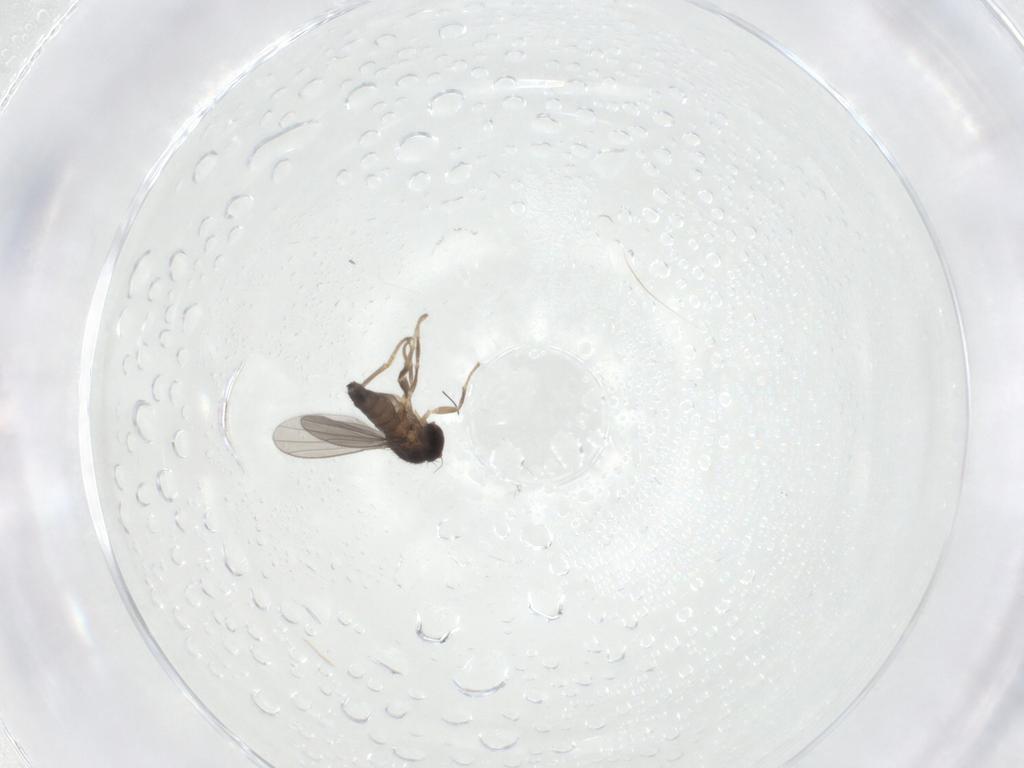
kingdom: Animalia
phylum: Arthropoda
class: Insecta
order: Diptera
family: Dolichopodidae
